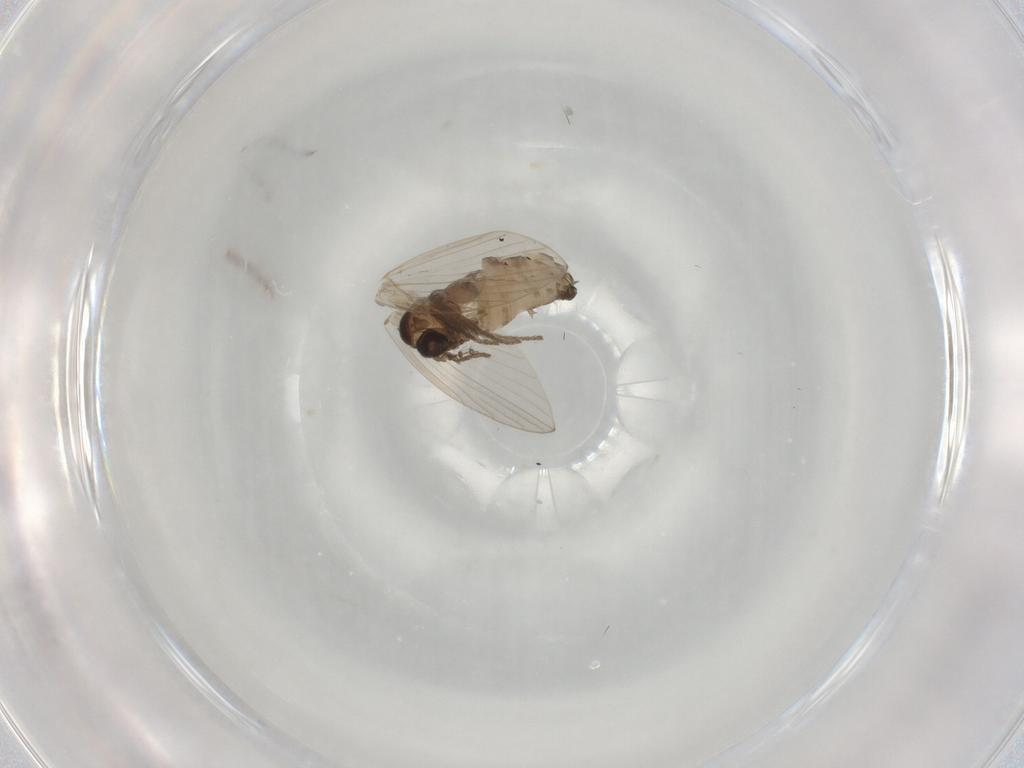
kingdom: Animalia
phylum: Arthropoda
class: Insecta
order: Diptera
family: Psychodidae
